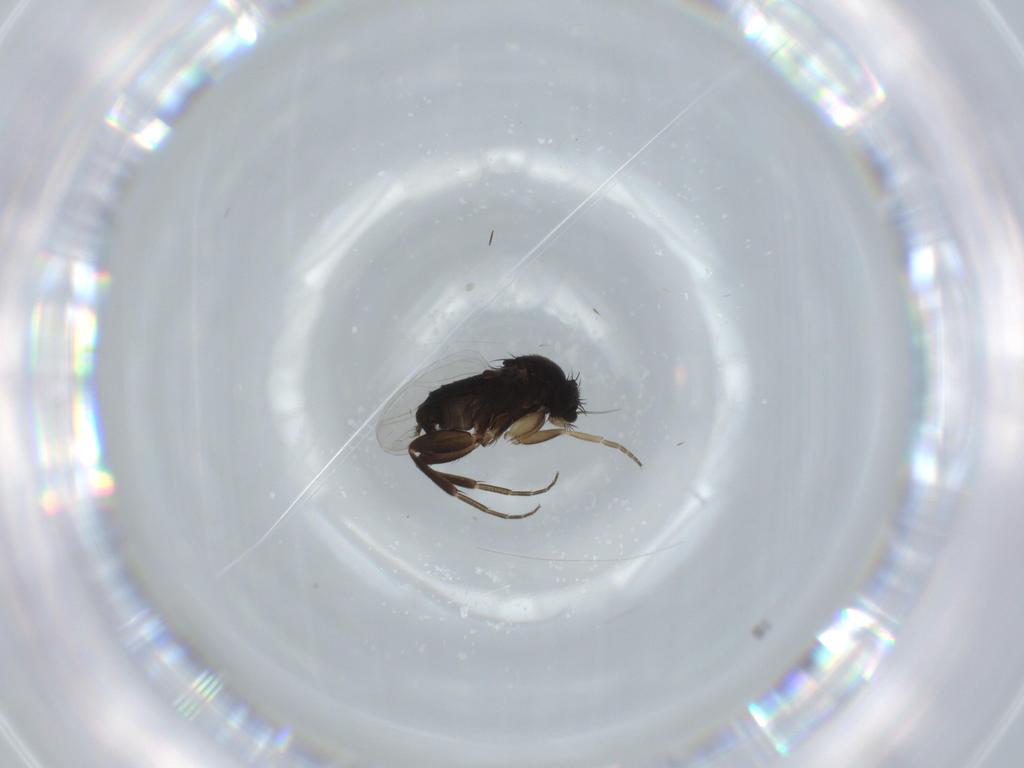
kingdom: Animalia
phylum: Arthropoda
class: Insecta
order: Diptera
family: Phoridae
